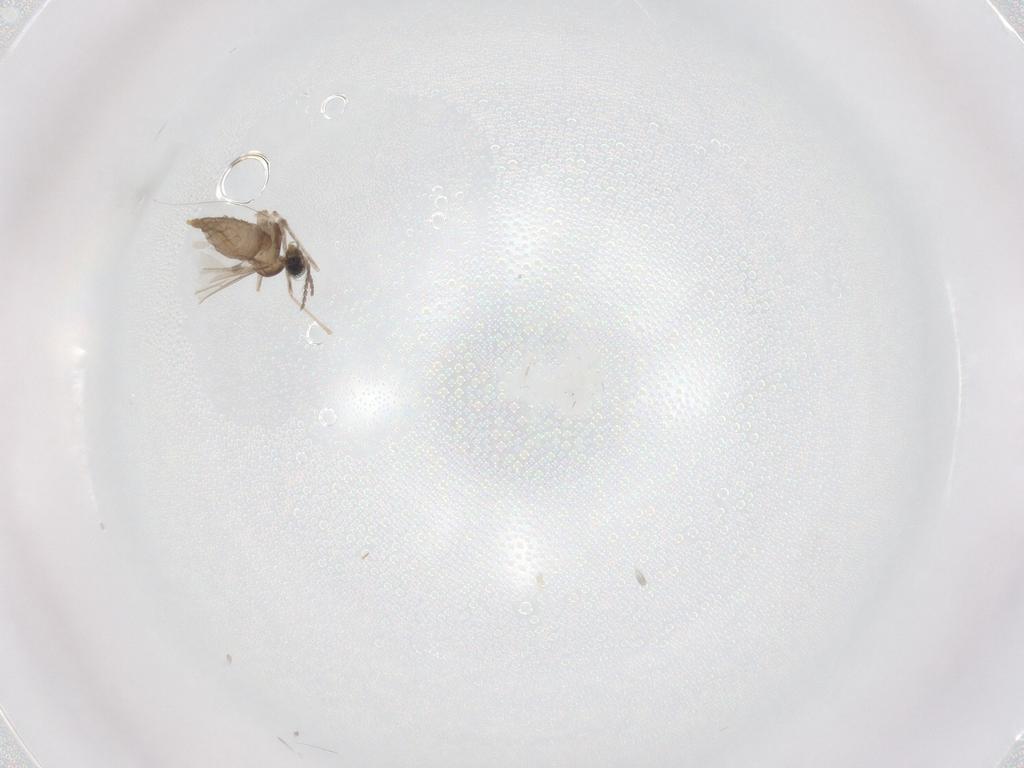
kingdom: Animalia
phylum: Arthropoda
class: Insecta
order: Diptera
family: Cecidomyiidae
